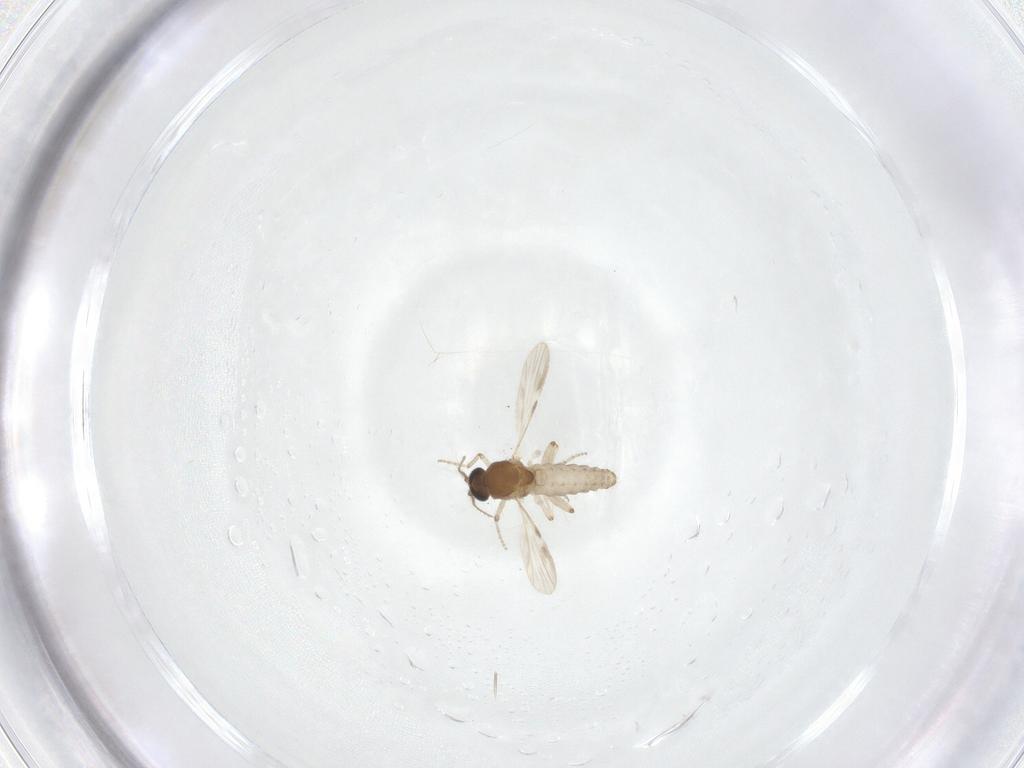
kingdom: Animalia
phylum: Arthropoda
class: Insecta
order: Diptera
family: Ceratopogonidae
